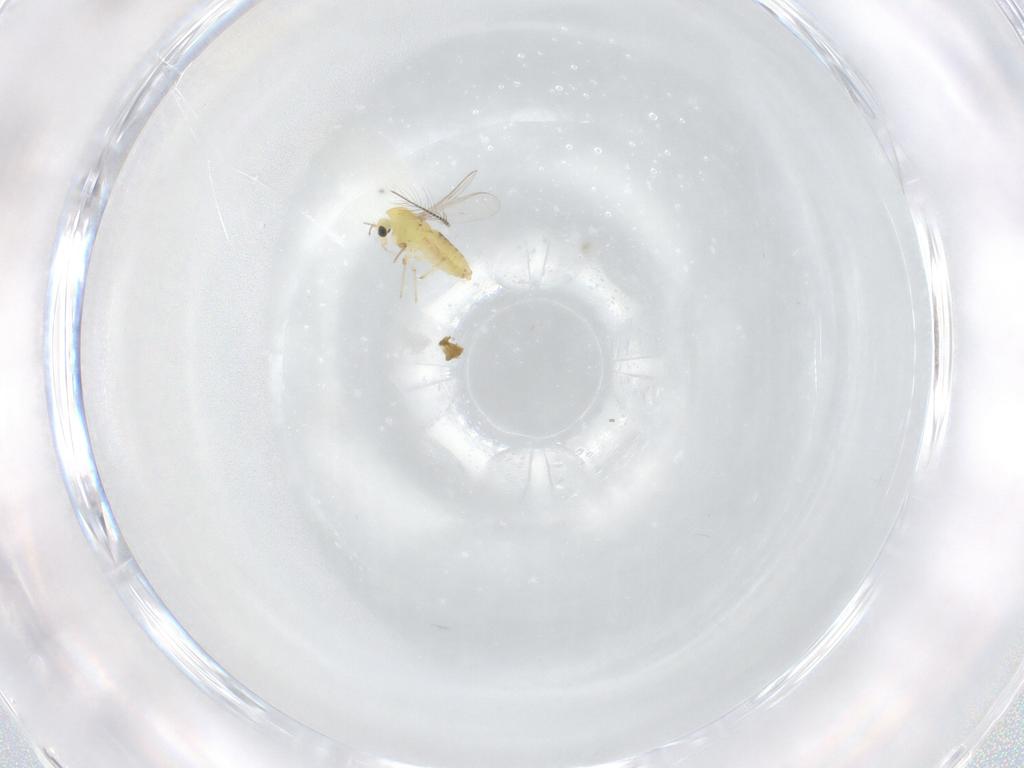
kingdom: Animalia
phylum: Arthropoda
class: Insecta
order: Diptera
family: Chironomidae
